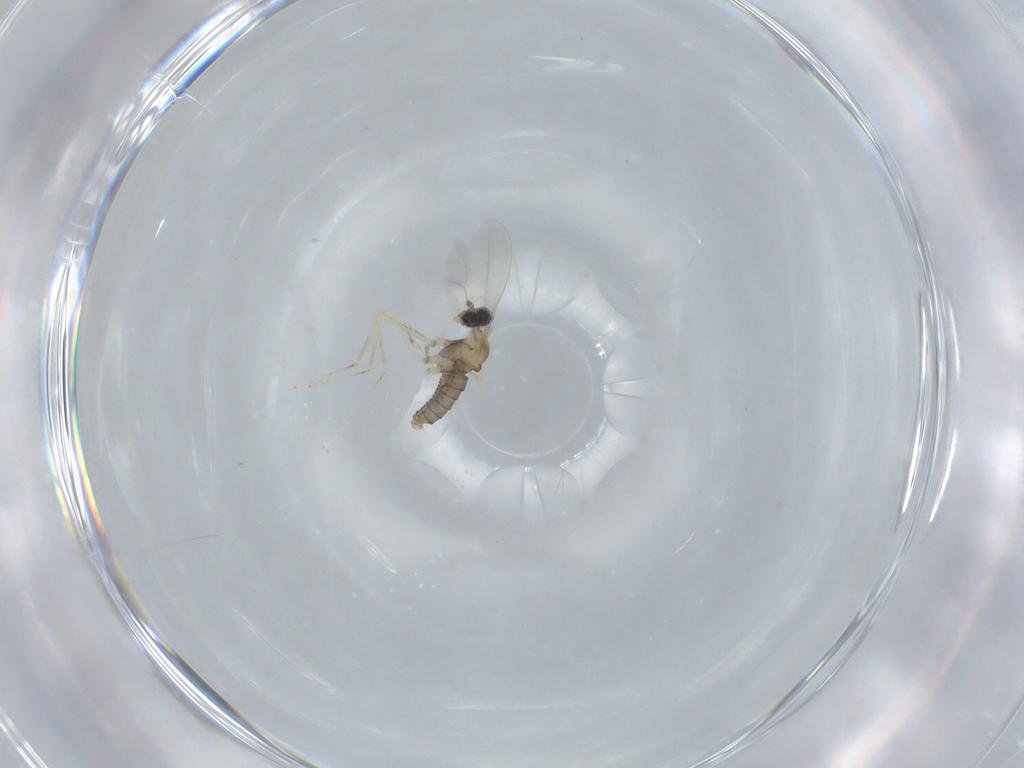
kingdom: Animalia
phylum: Arthropoda
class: Insecta
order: Diptera
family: Cecidomyiidae
